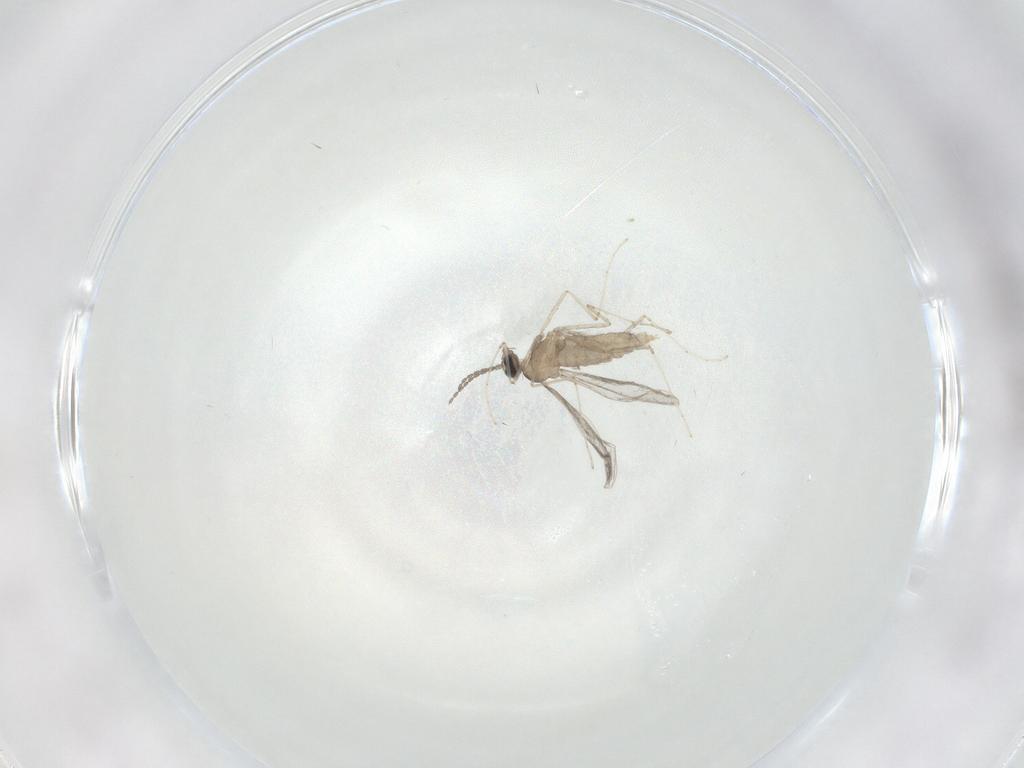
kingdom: Animalia
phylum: Arthropoda
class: Insecta
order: Diptera
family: Cecidomyiidae
